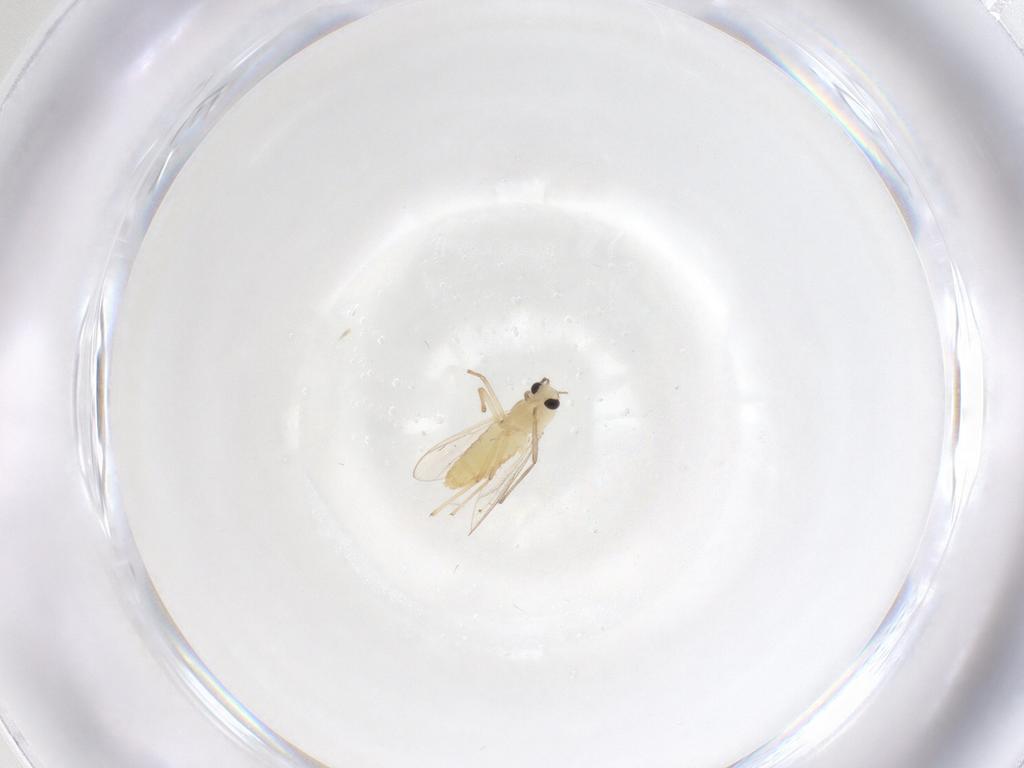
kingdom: Animalia
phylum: Arthropoda
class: Insecta
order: Diptera
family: Chironomidae
